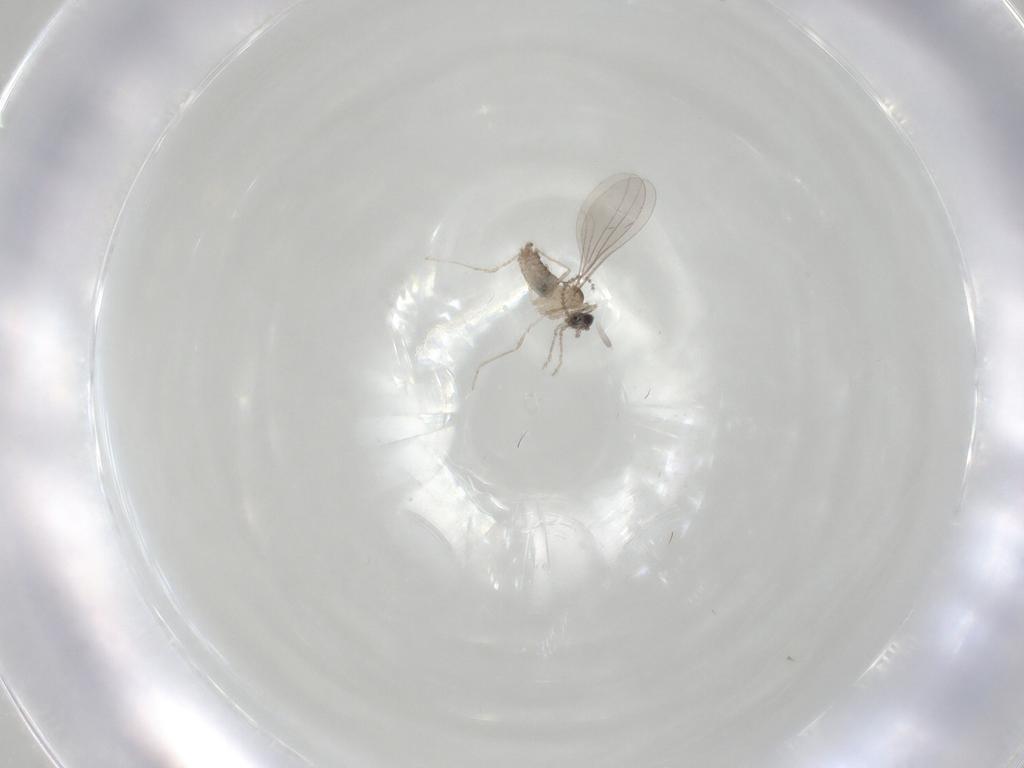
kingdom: Animalia
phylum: Arthropoda
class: Insecta
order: Diptera
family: Cecidomyiidae
